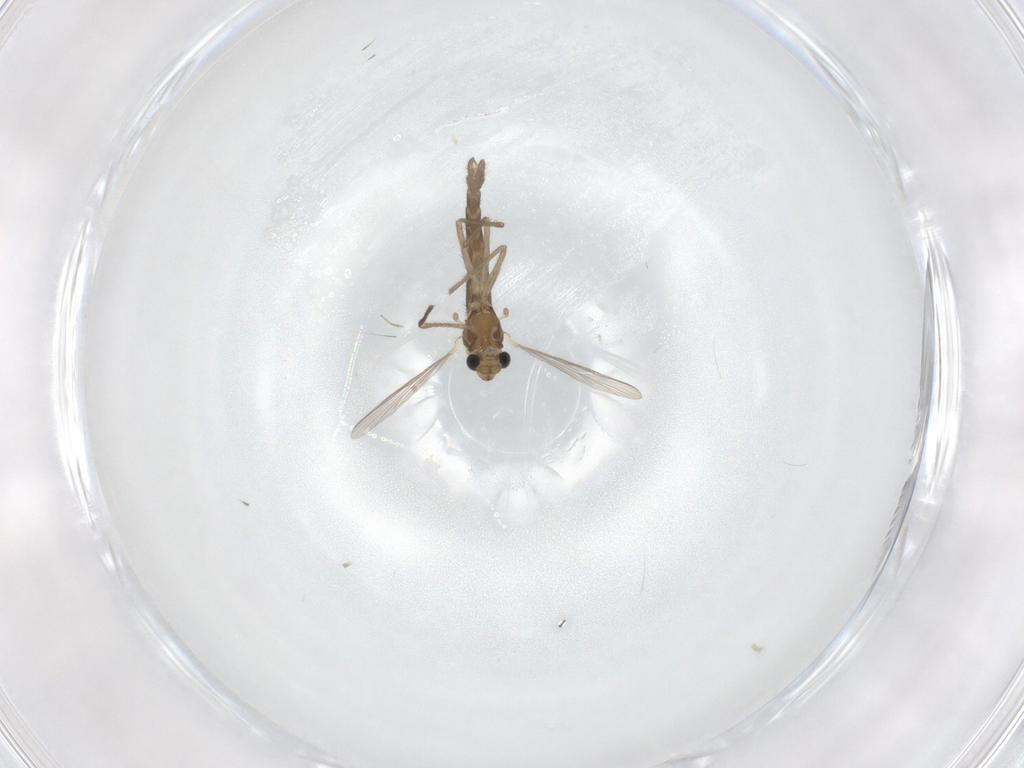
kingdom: Animalia
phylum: Arthropoda
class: Insecta
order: Diptera
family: Chironomidae
